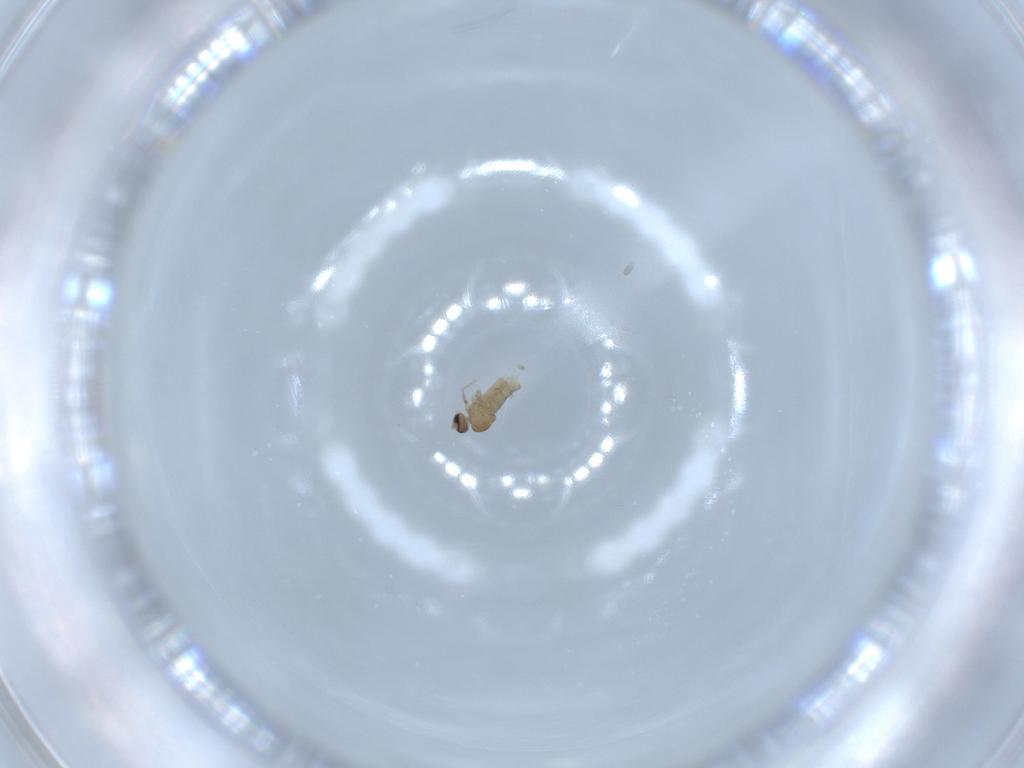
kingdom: Animalia
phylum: Arthropoda
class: Insecta
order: Diptera
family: Cecidomyiidae
